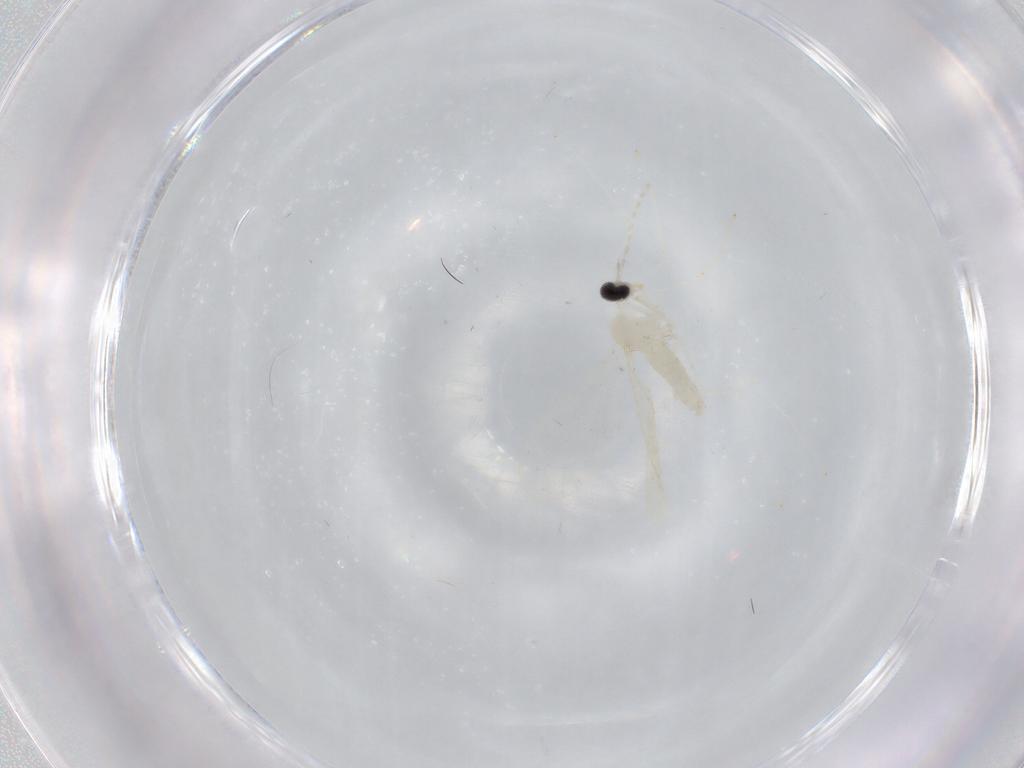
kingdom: Animalia
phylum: Arthropoda
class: Insecta
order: Diptera
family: Cecidomyiidae
